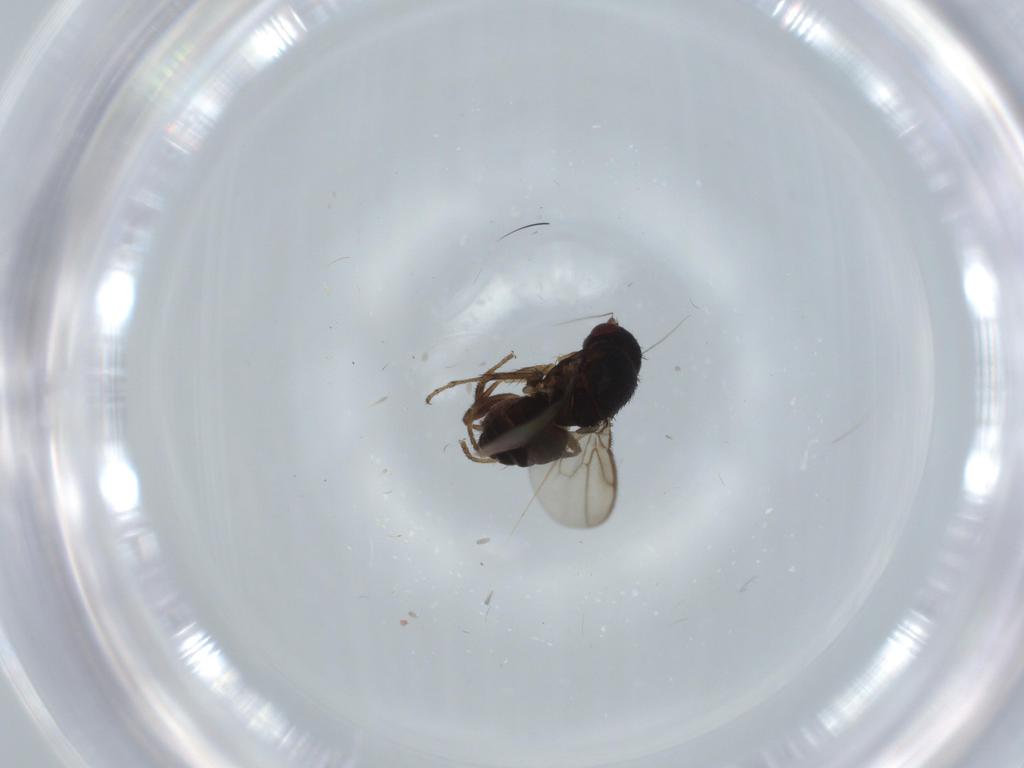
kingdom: Animalia
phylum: Arthropoda
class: Insecta
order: Diptera
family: Sphaeroceridae
